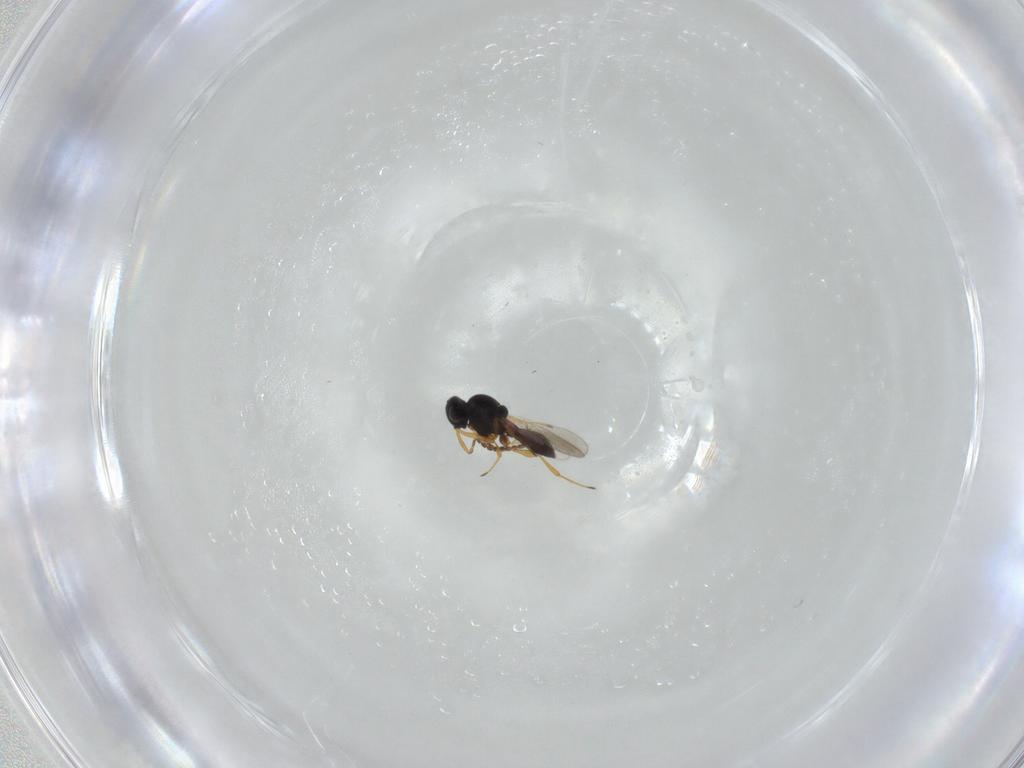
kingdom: Animalia
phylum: Arthropoda
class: Insecta
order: Hymenoptera
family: Platygastridae
